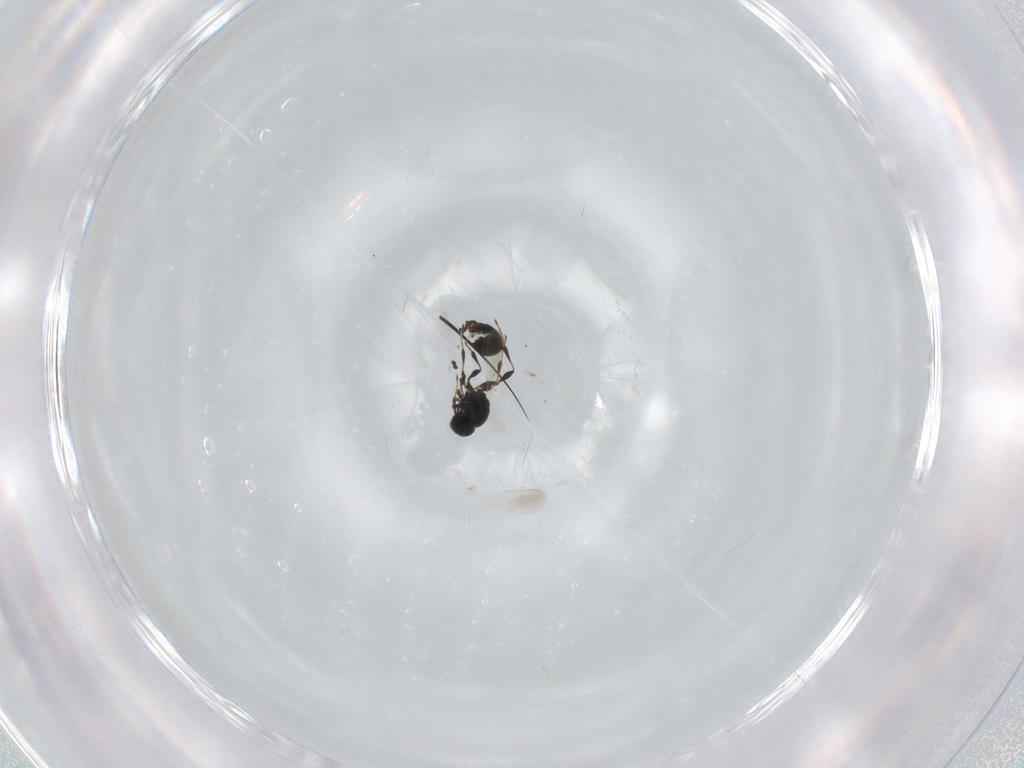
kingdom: Animalia
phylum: Arthropoda
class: Insecta
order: Hymenoptera
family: Platygastridae
